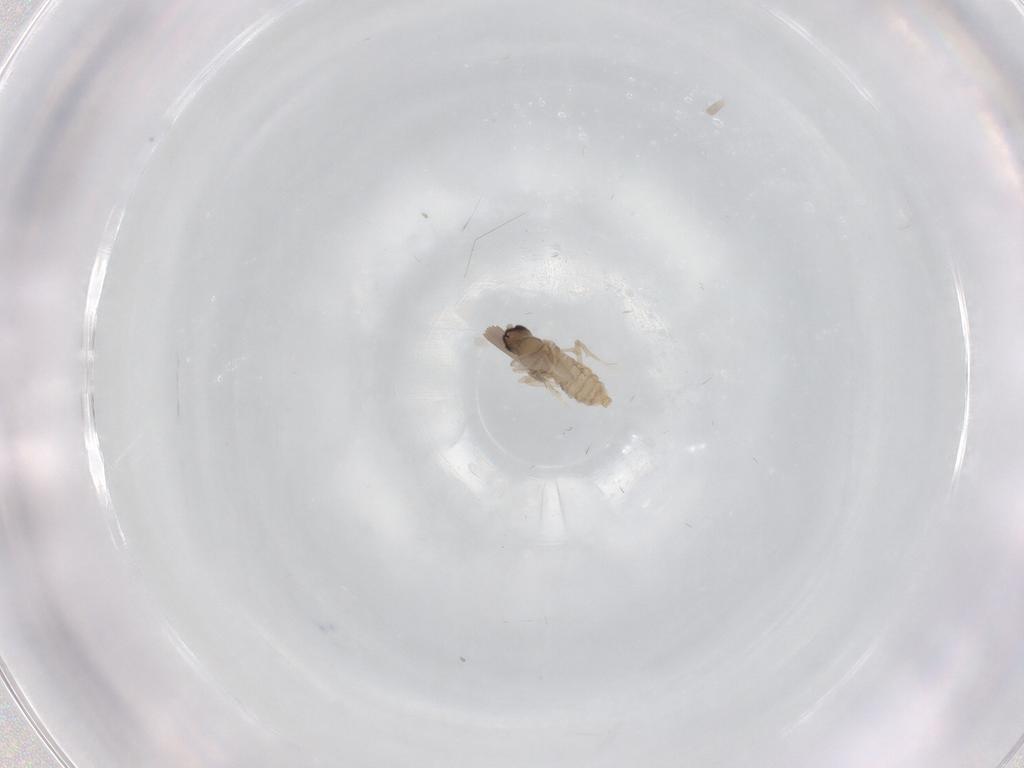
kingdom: Animalia
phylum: Arthropoda
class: Insecta
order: Diptera
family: Cecidomyiidae
